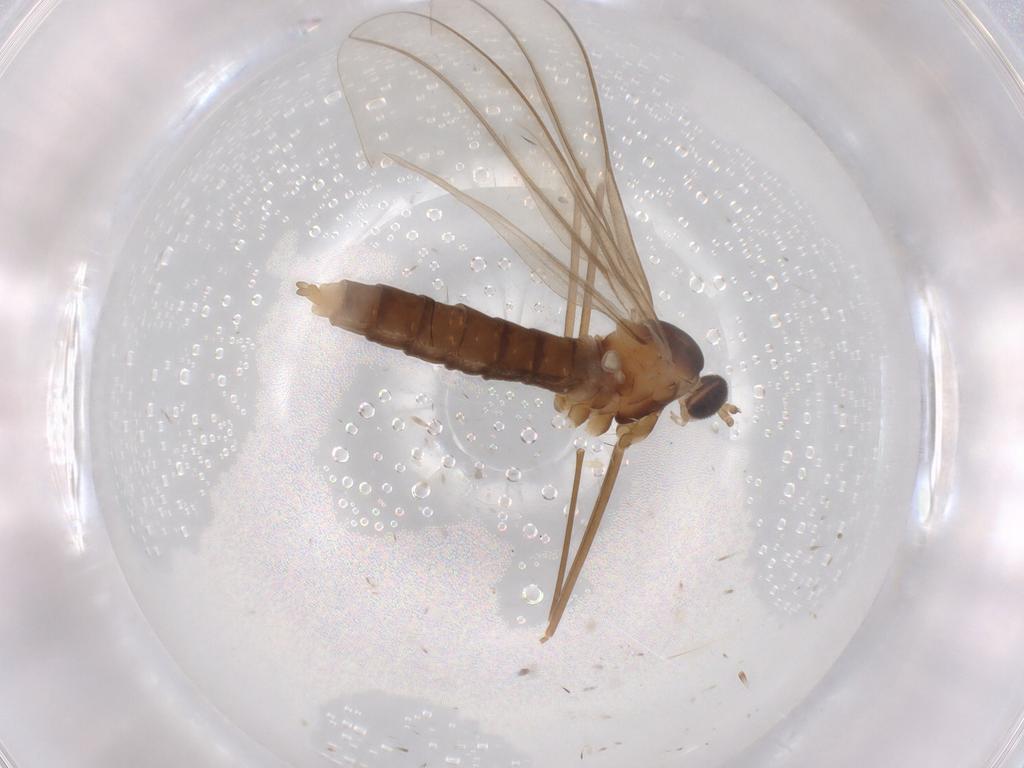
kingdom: Animalia
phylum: Arthropoda
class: Insecta
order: Diptera
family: Cecidomyiidae
